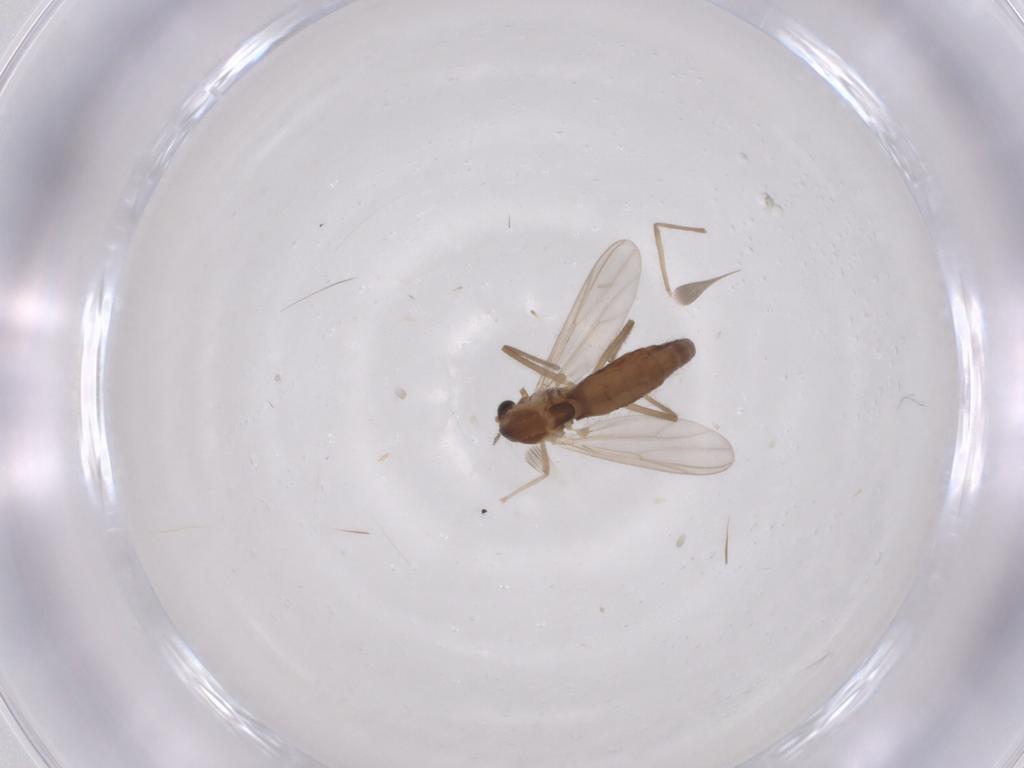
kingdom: Animalia
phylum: Arthropoda
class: Insecta
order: Diptera
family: Chironomidae
